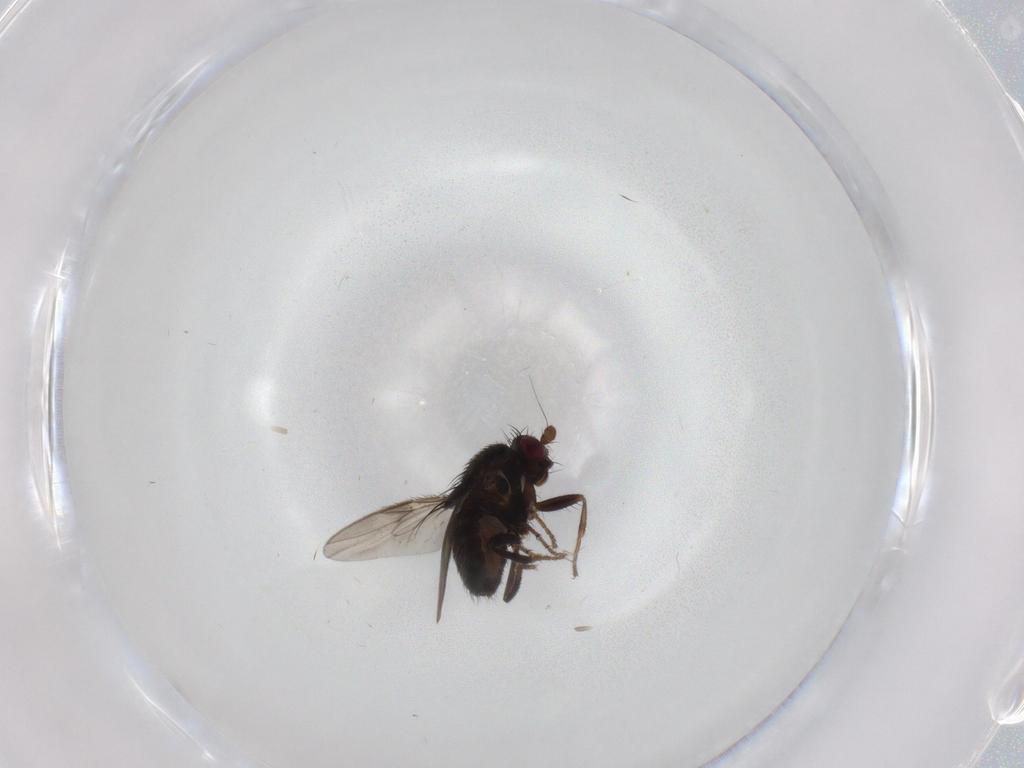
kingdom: Animalia
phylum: Arthropoda
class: Insecta
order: Diptera
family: Sphaeroceridae
